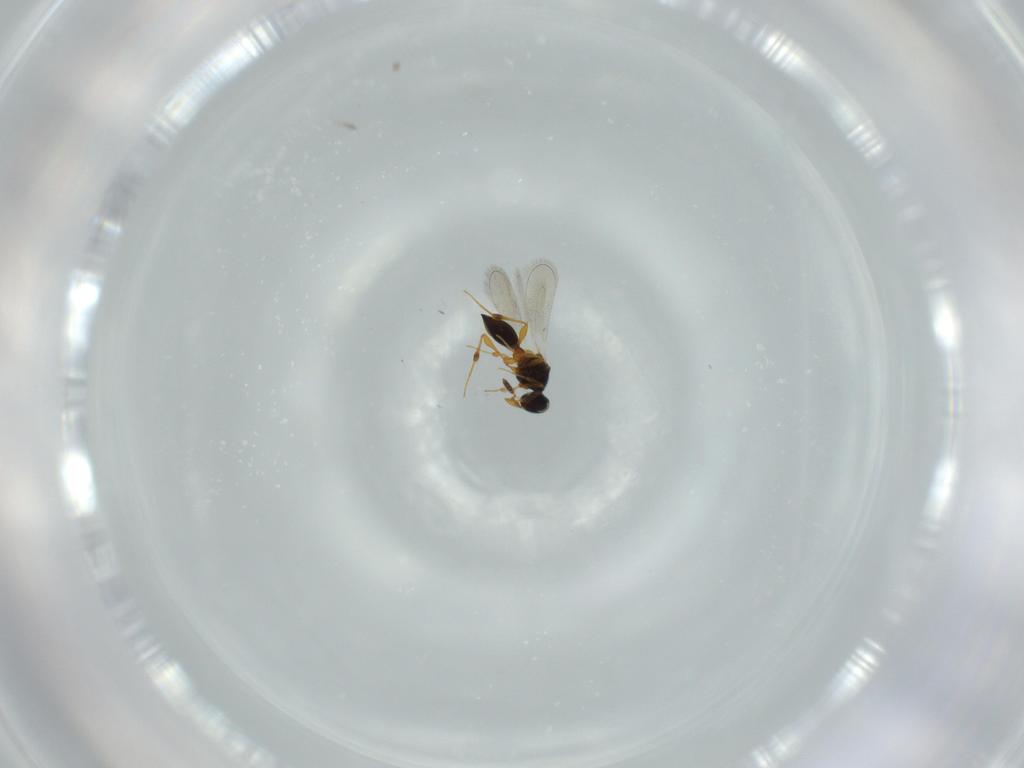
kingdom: Animalia
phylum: Arthropoda
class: Insecta
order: Hymenoptera
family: Platygastridae
